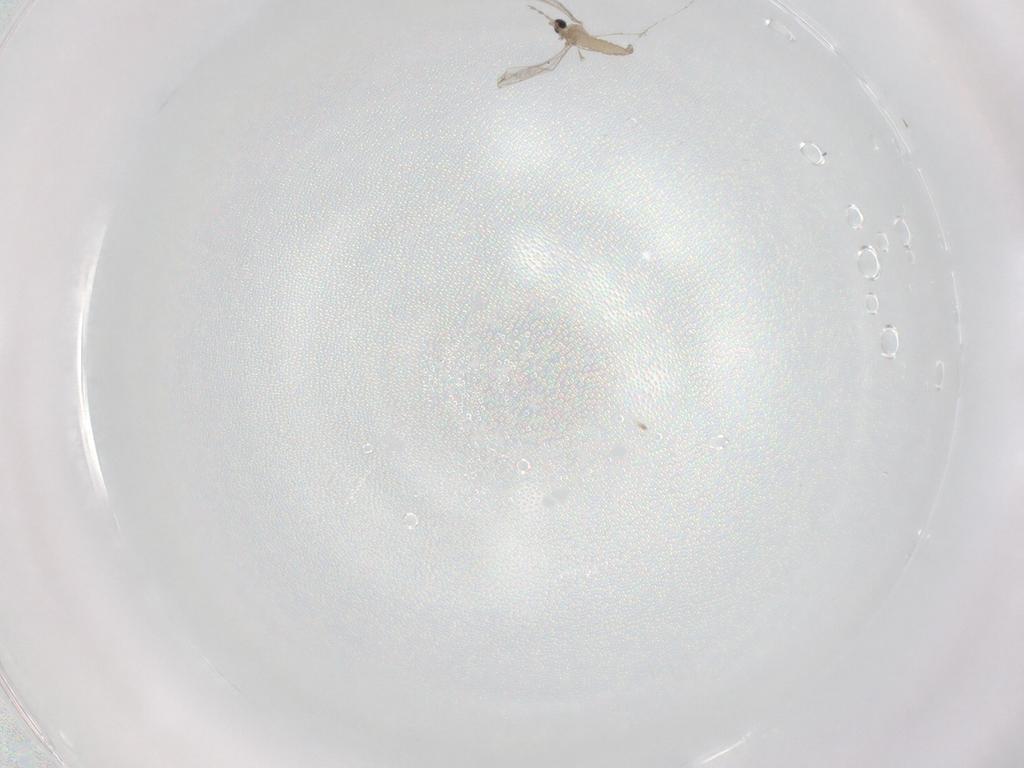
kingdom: Animalia
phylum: Arthropoda
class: Insecta
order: Diptera
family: Cecidomyiidae
